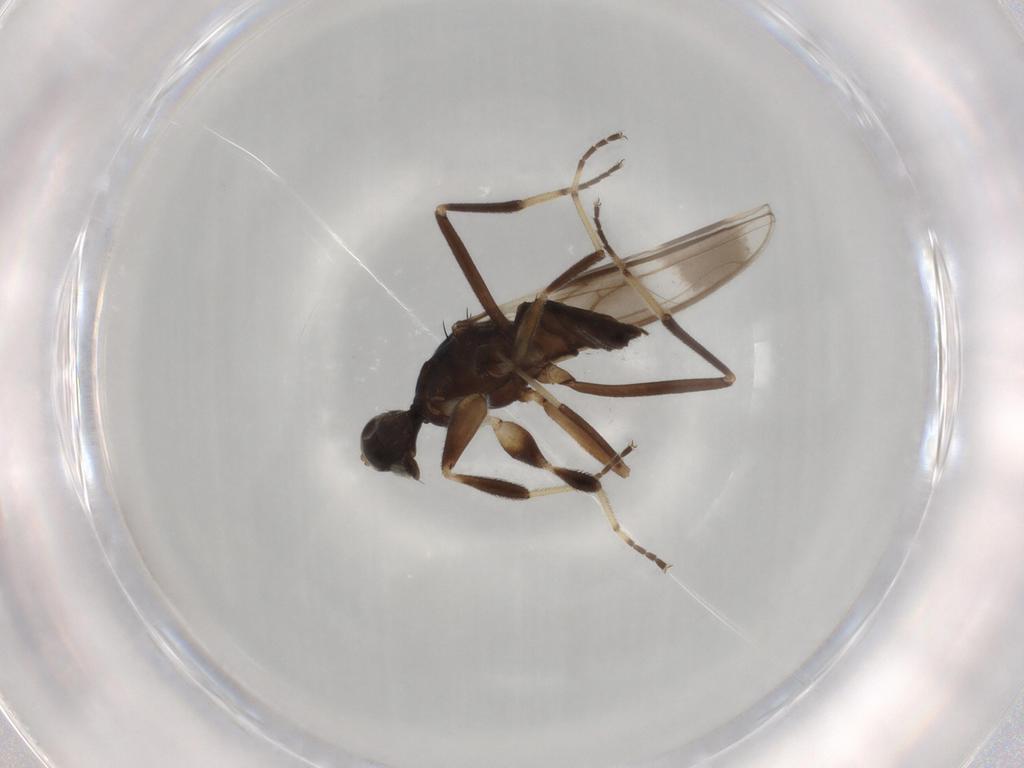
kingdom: Animalia
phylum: Arthropoda
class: Insecta
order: Diptera
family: Hybotidae
